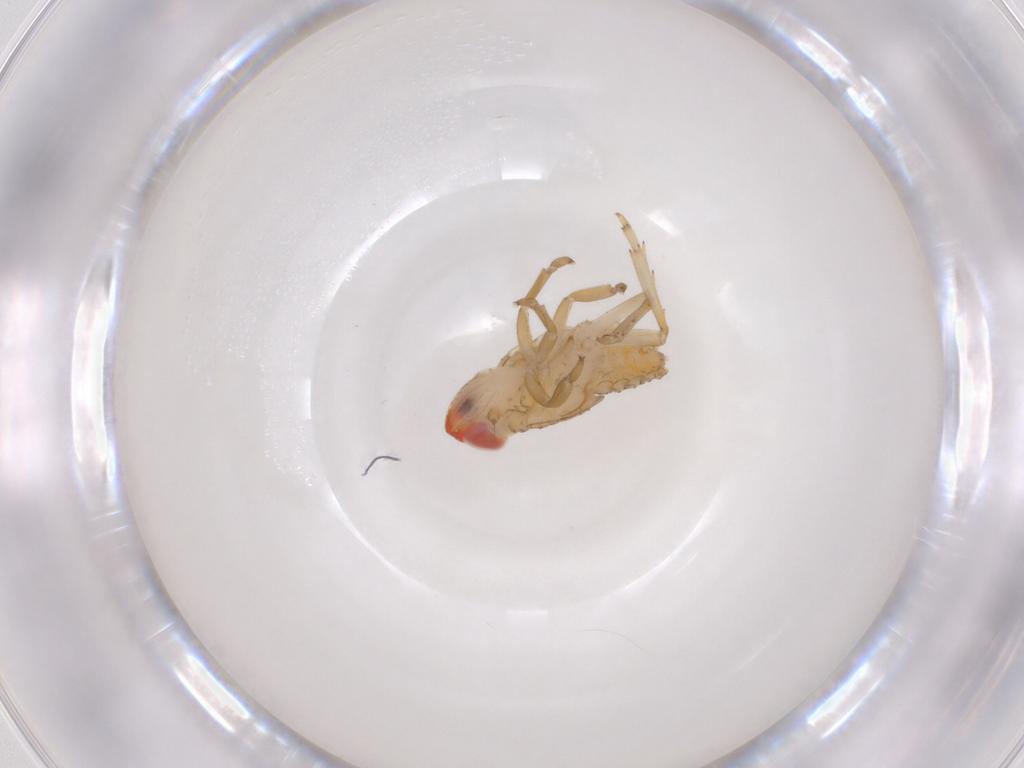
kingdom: Animalia
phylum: Arthropoda
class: Insecta
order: Hemiptera
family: Issidae
